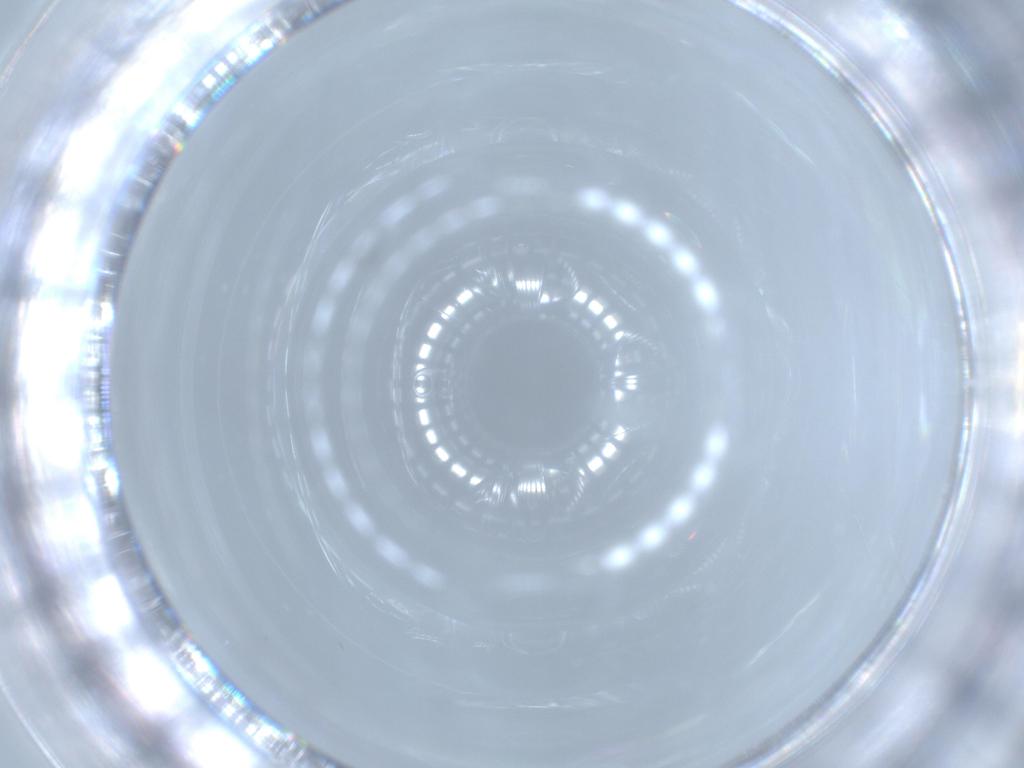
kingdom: Animalia
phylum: Arthropoda
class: Insecta
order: Diptera
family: Cecidomyiidae
